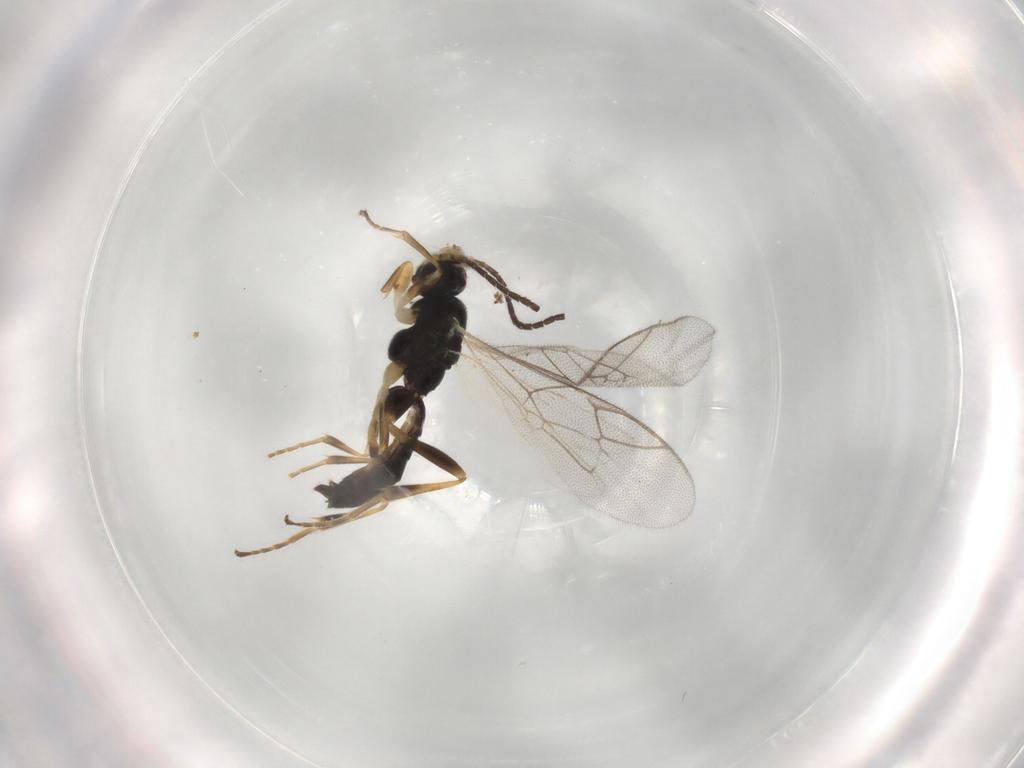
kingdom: Animalia
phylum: Arthropoda
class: Insecta
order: Hymenoptera
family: Ichneumonidae
